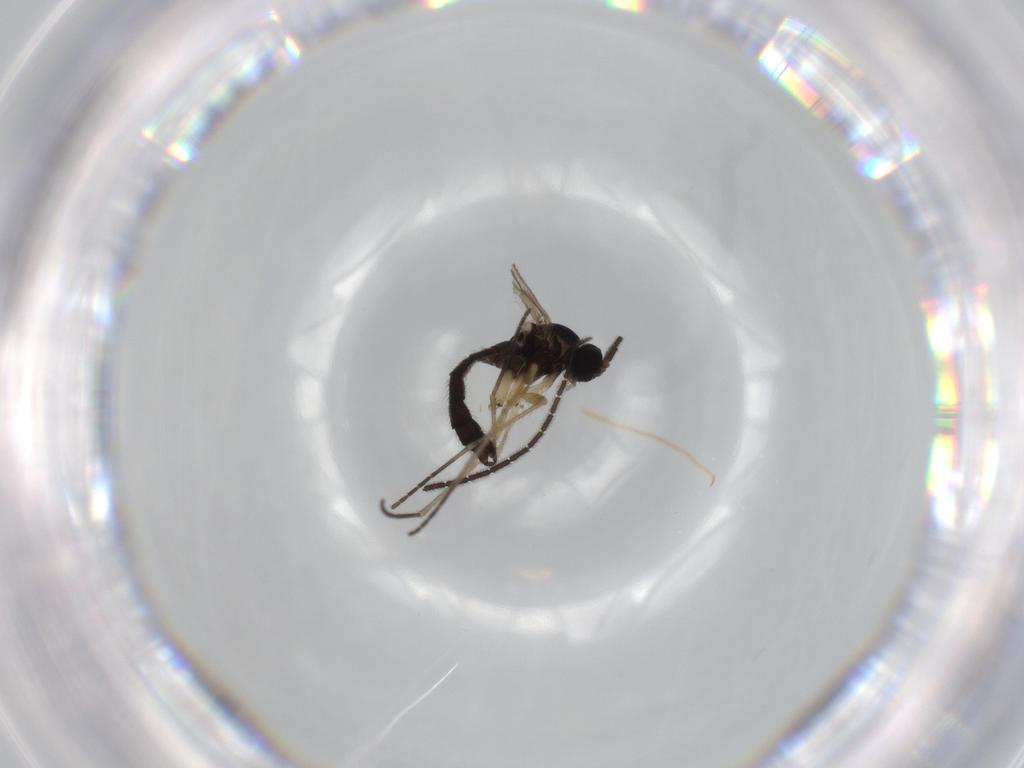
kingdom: Animalia
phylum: Arthropoda
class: Insecta
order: Diptera
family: Sciaridae
